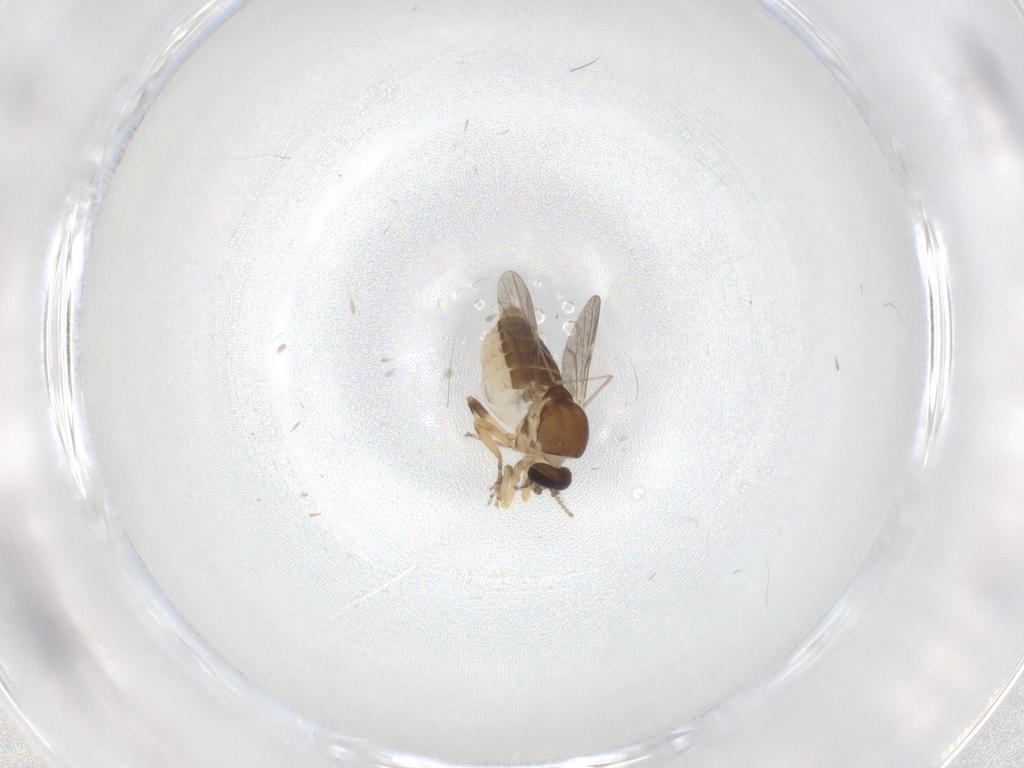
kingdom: Animalia
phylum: Arthropoda
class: Insecta
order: Diptera
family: Ceratopogonidae
